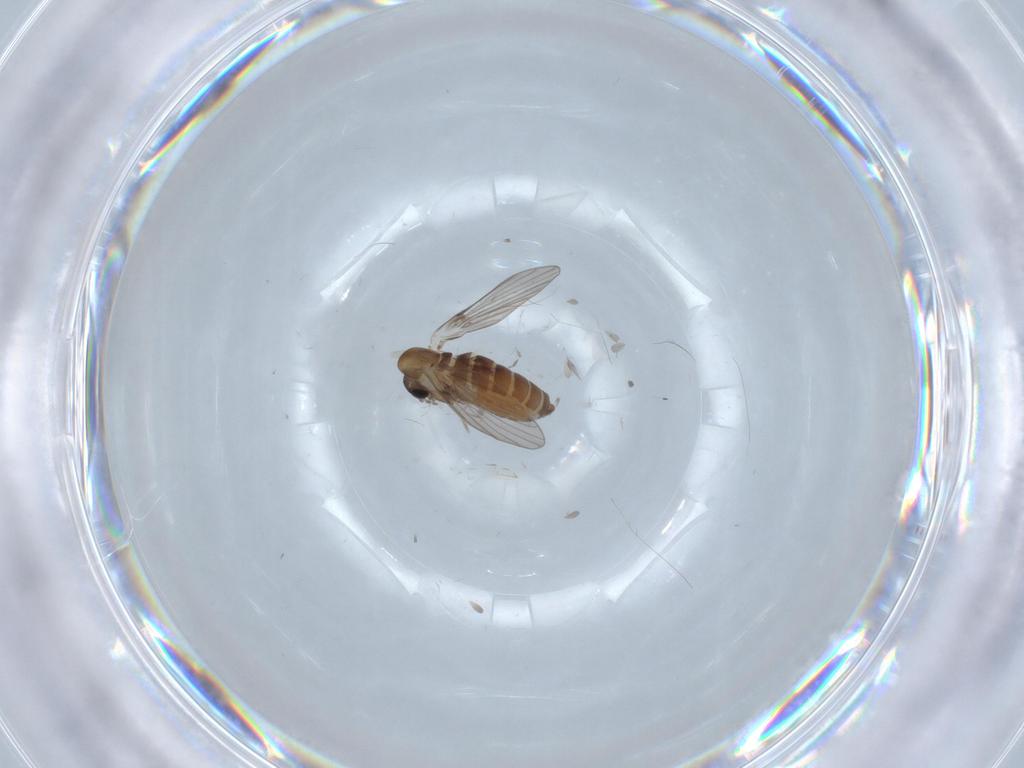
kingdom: Animalia
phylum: Arthropoda
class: Insecta
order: Diptera
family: Psychodidae
